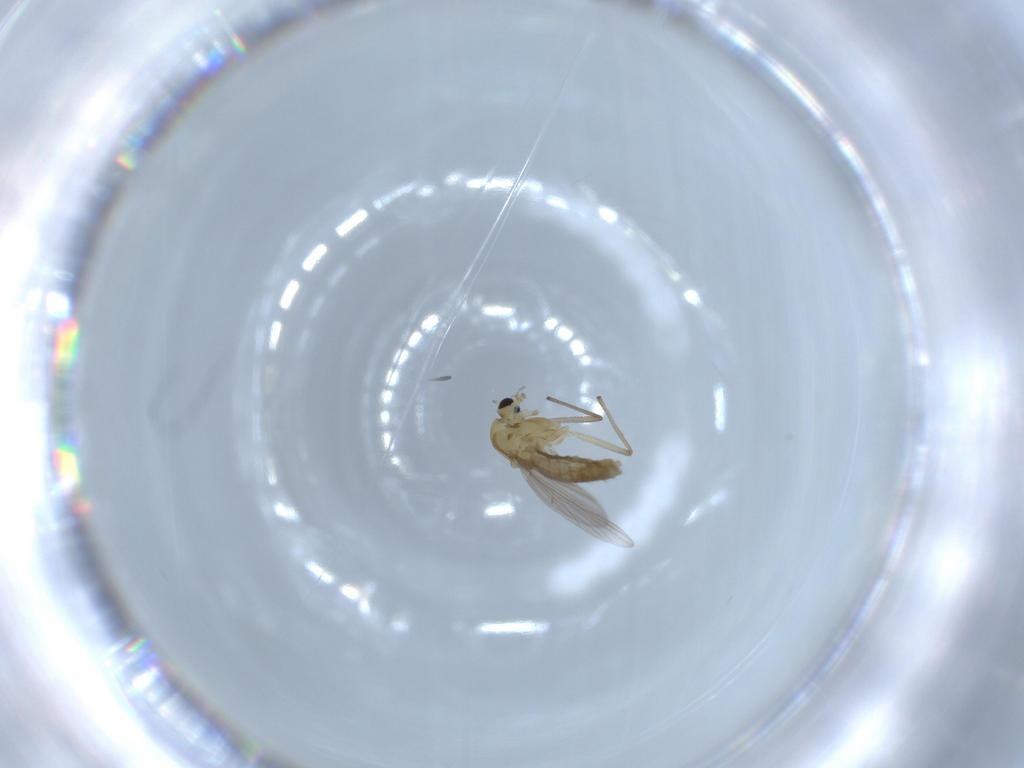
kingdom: Animalia
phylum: Arthropoda
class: Insecta
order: Diptera
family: Chironomidae
